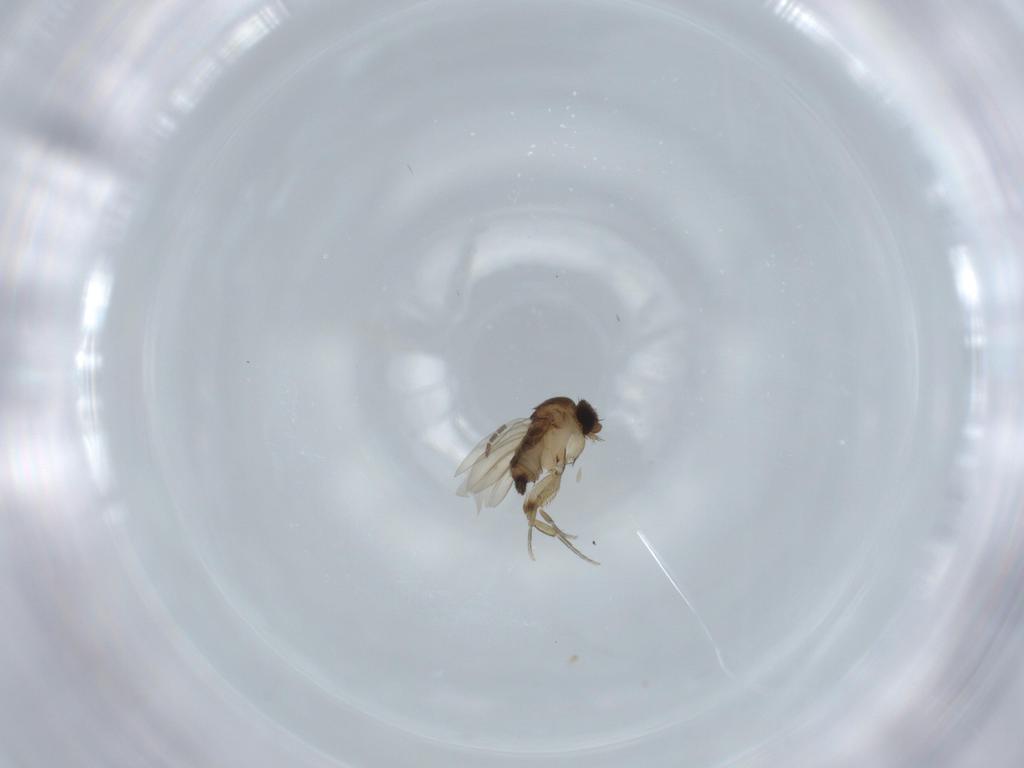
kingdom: Animalia
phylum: Arthropoda
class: Insecta
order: Diptera
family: Phoridae
